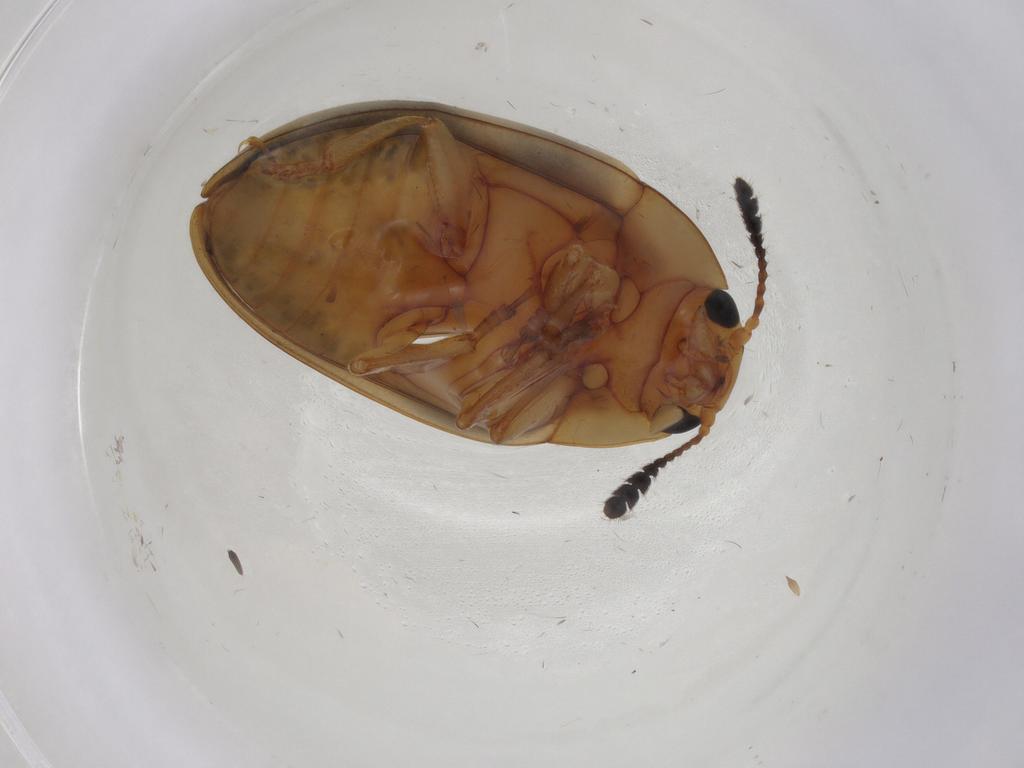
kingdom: Animalia
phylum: Arthropoda
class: Insecta
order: Coleoptera
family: Erotylidae
